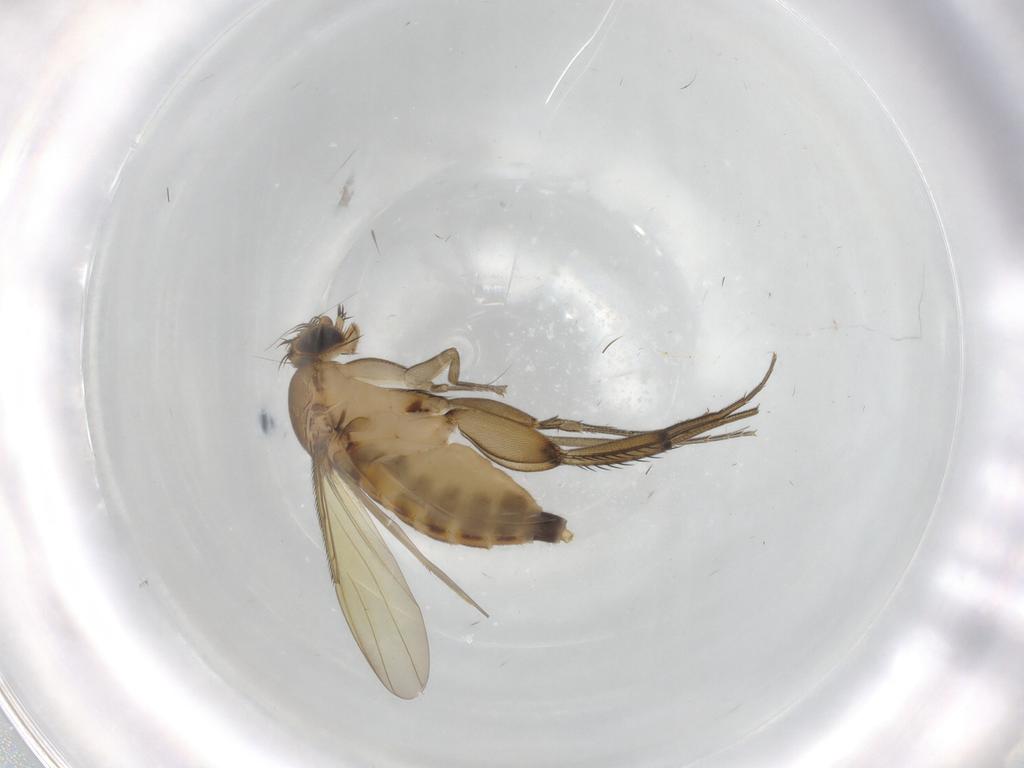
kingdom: Animalia
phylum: Arthropoda
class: Insecta
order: Diptera
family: Phoridae
